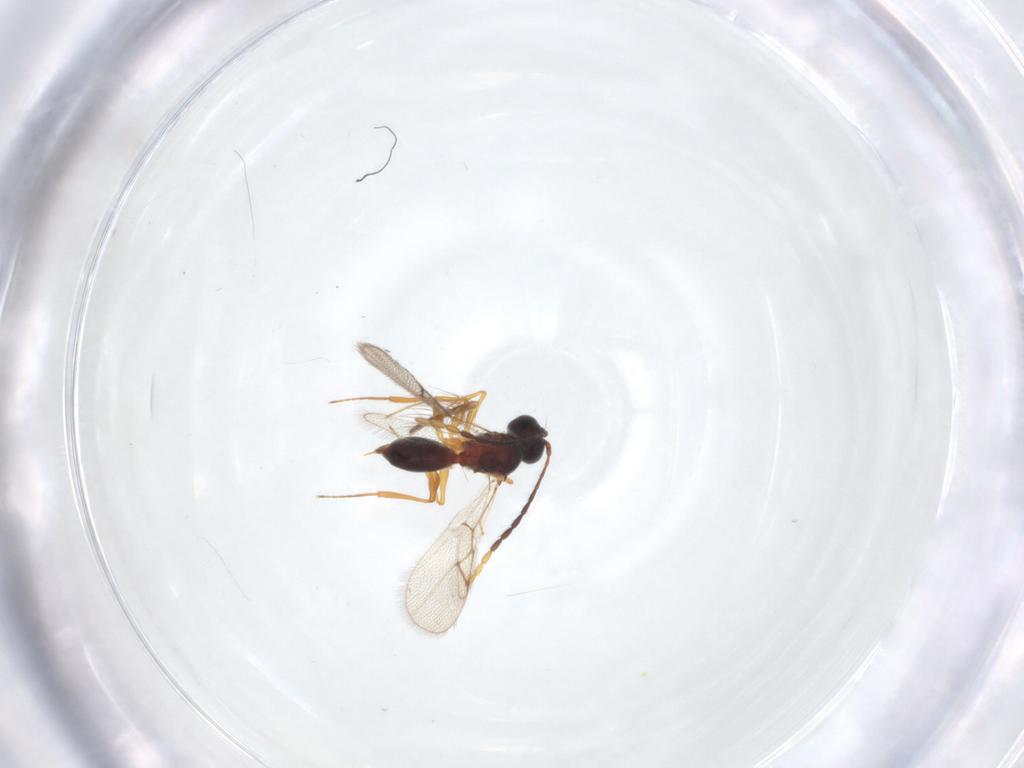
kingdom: Animalia
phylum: Arthropoda
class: Insecta
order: Hymenoptera
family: Figitidae
